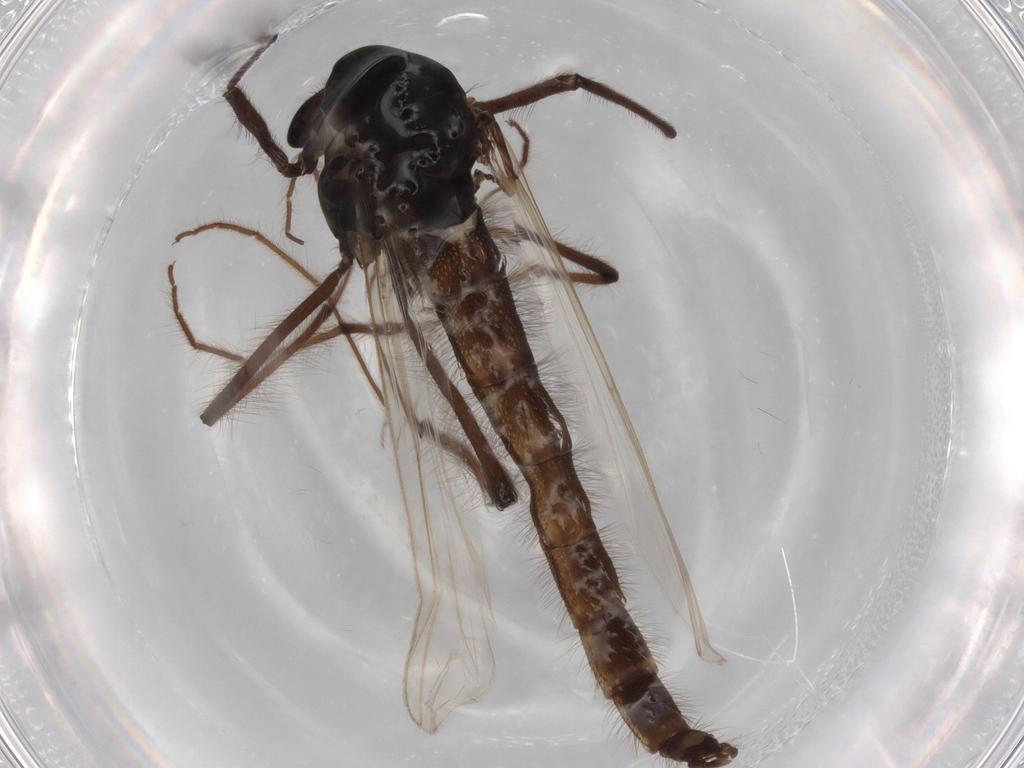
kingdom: Animalia
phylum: Arthropoda
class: Insecta
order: Diptera
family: Chironomidae
